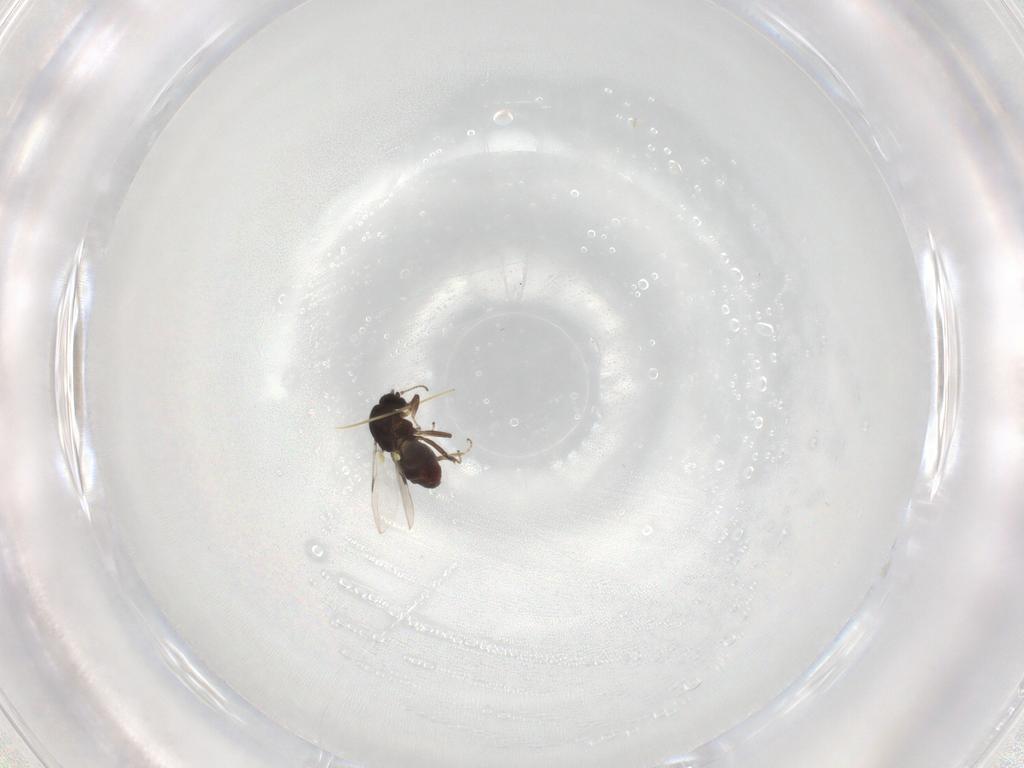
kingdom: Animalia
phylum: Arthropoda
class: Insecta
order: Diptera
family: Ceratopogonidae
